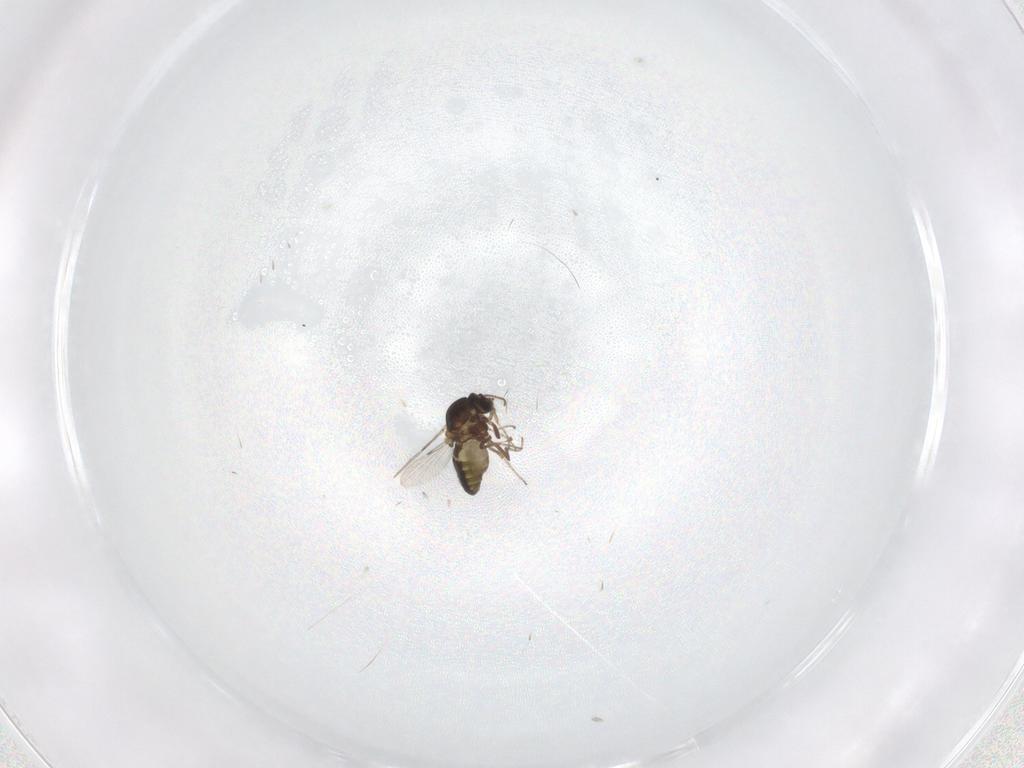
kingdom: Animalia
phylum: Arthropoda
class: Insecta
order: Diptera
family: Ceratopogonidae
